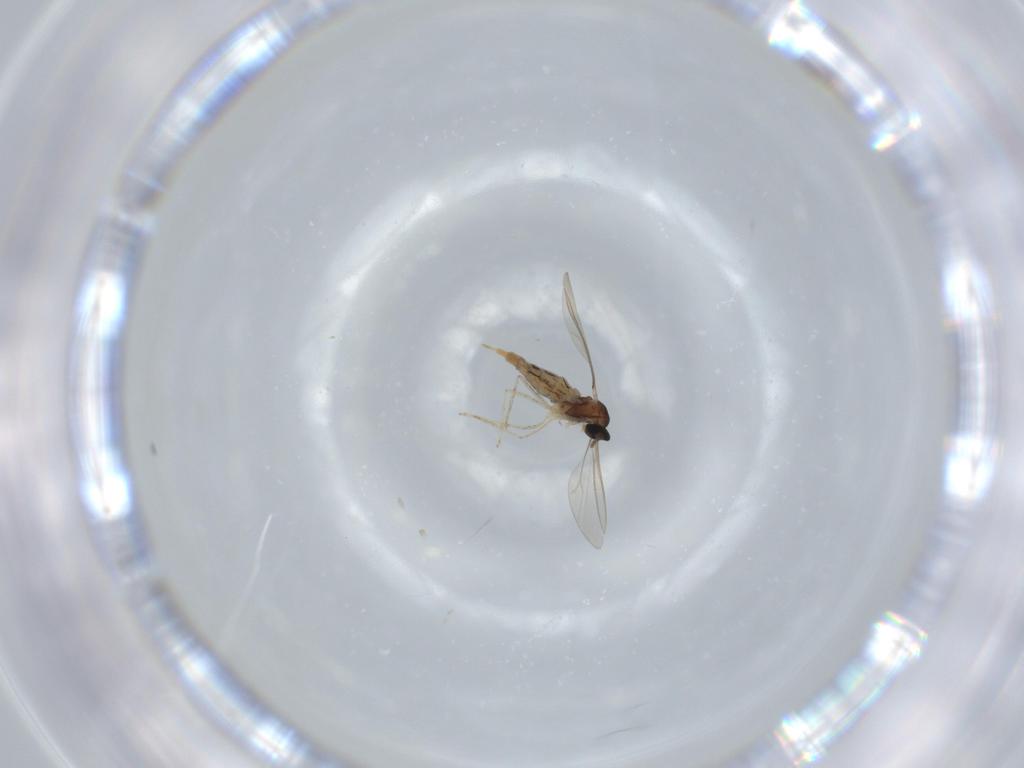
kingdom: Animalia
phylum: Arthropoda
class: Insecta
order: Diptera
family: Cecidomyiidae
